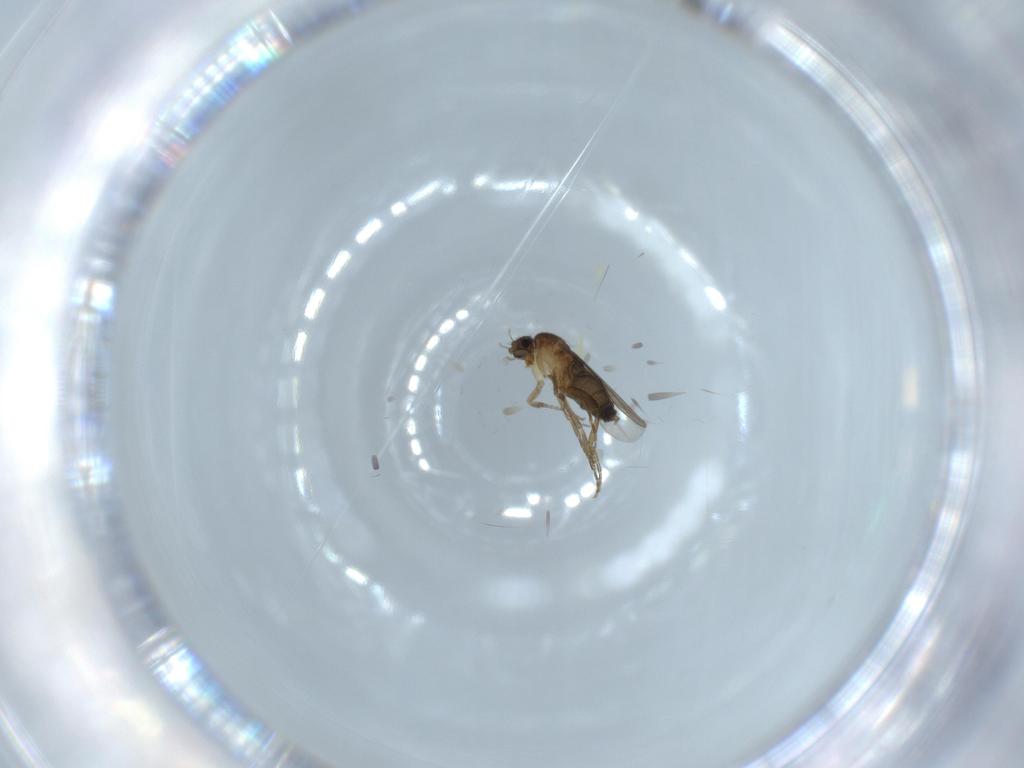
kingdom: Animalia
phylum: Arthropoda
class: Insecta
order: Diptera
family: Phoridae
